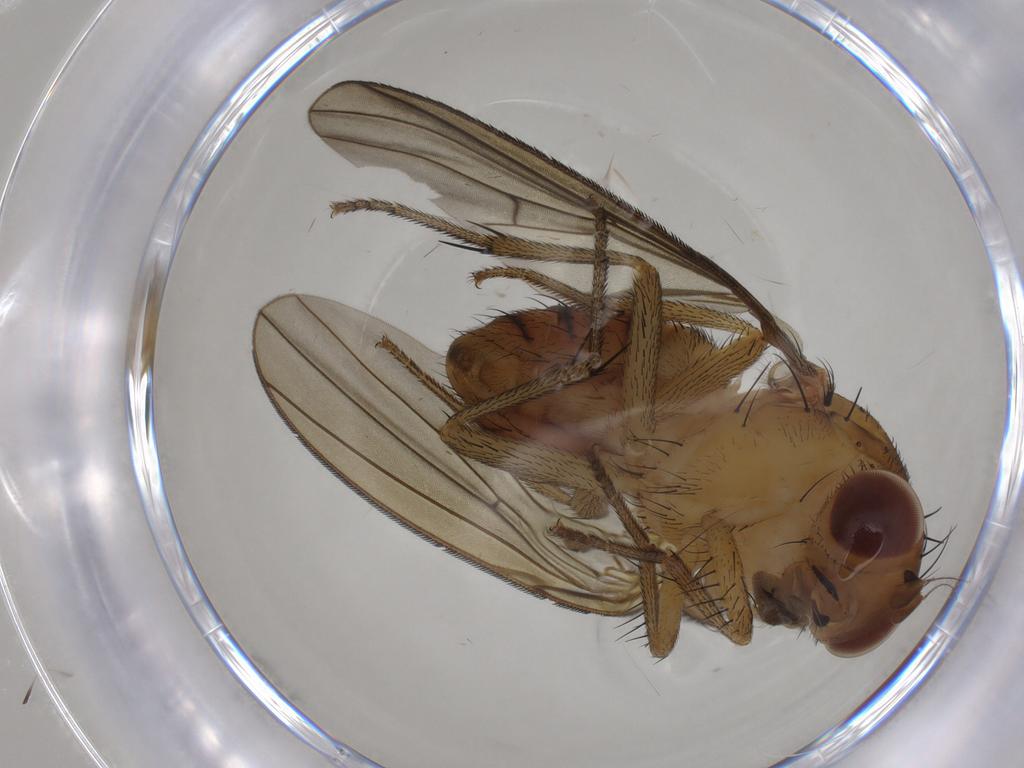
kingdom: Animalia
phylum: Arthropoda
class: Insecta
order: Diptera
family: Lauxaniidae
